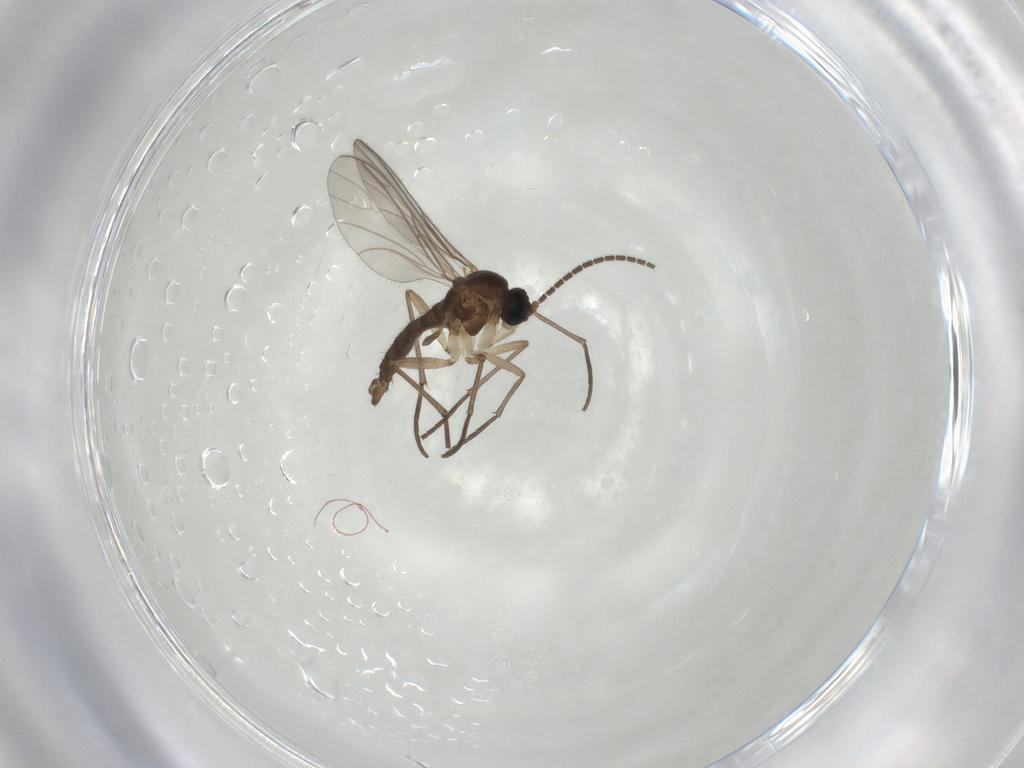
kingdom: Animalia
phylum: Arthropoda
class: Insecta
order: Diptera
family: Sciaridae
